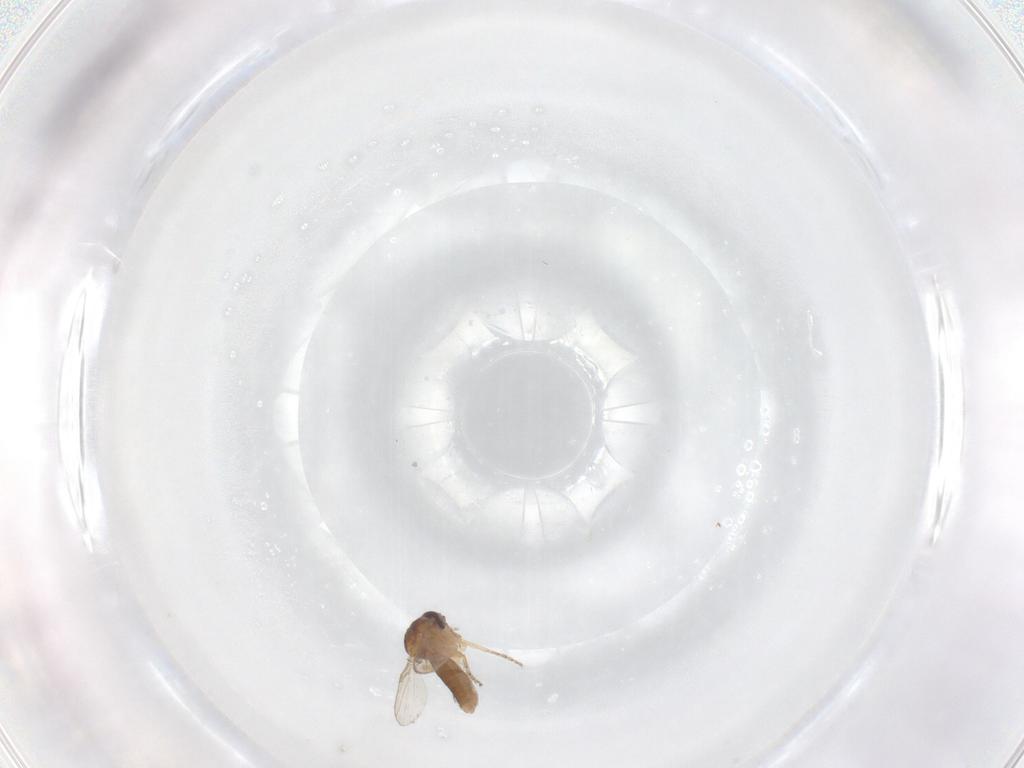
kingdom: Animalia
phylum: Arthropoda
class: Insecta
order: Diptera
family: Ceratopogonidae
